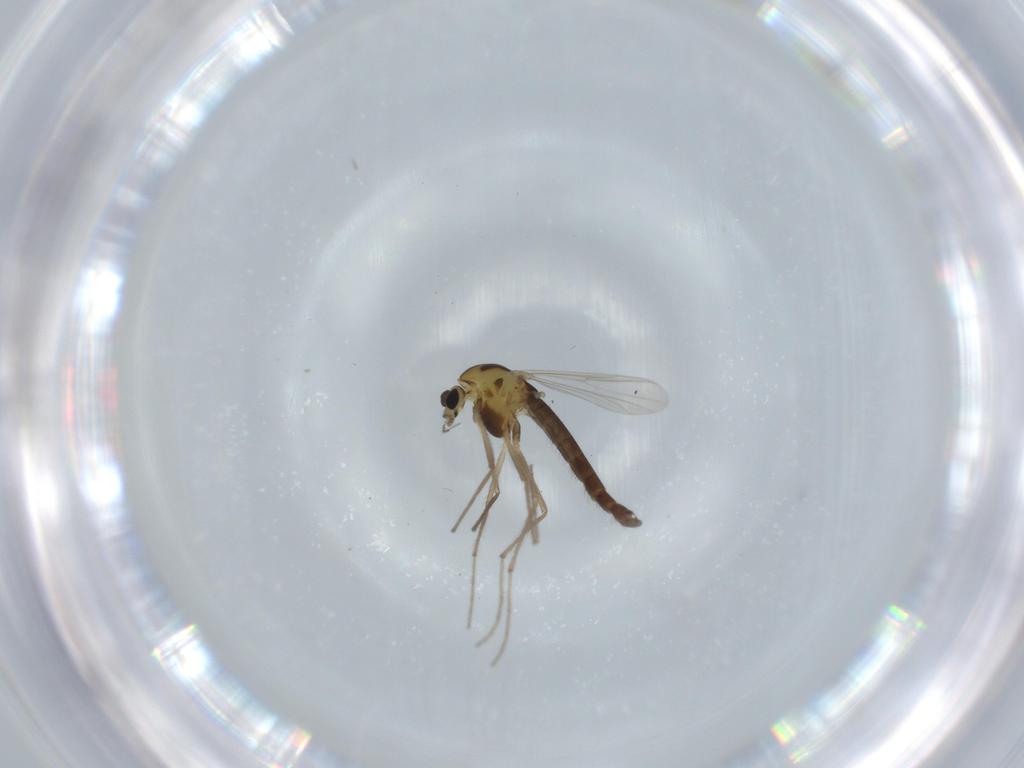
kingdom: Animalia
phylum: Arthropoda
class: Insecta
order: Diptera
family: Chironomidae
